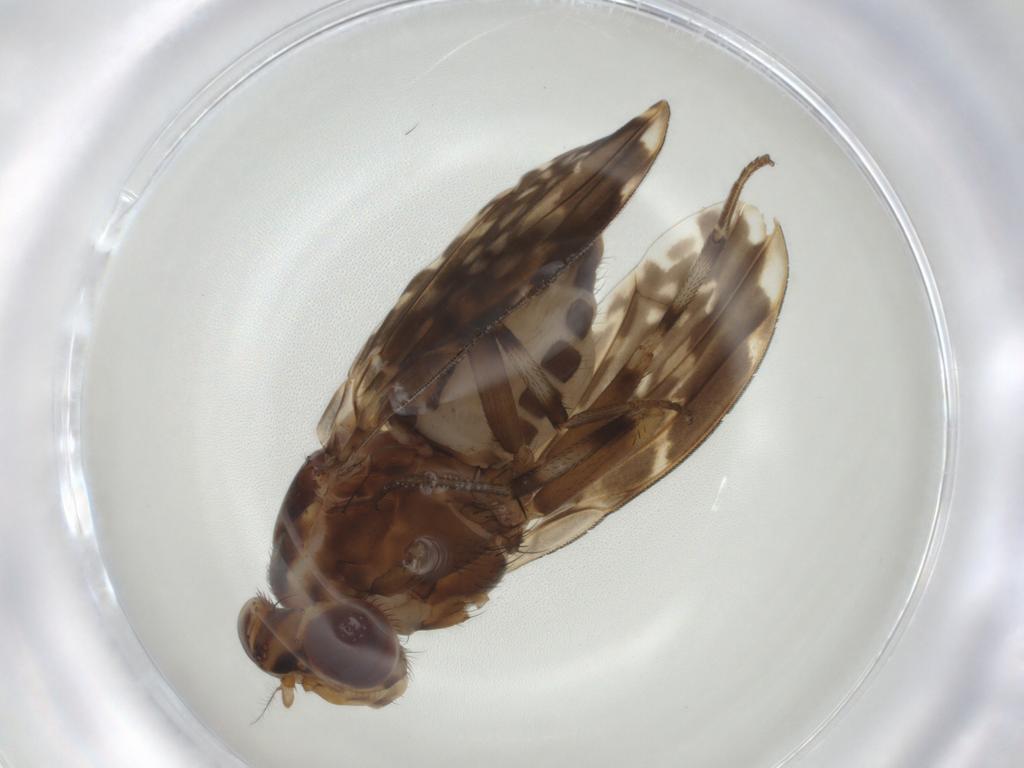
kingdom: Animalia
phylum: Arthropoda
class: Insecta
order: Diptera
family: Lauxaniidae
